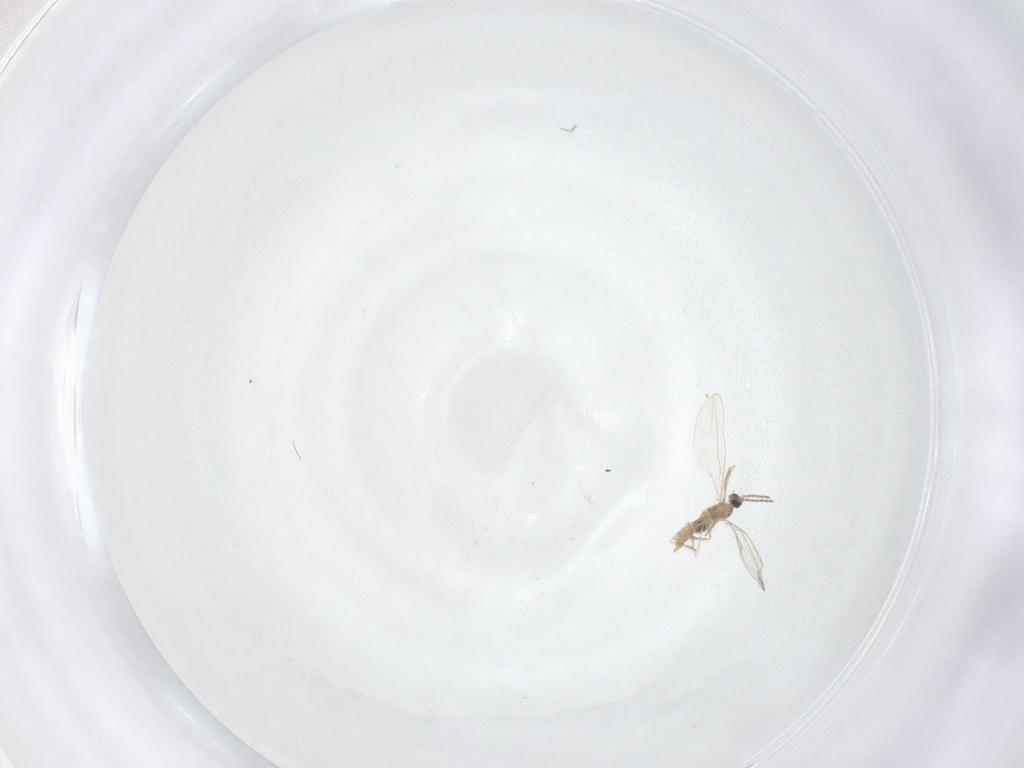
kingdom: Animalia
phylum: Arthropoda
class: Insecta
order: Diptera
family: Cecidomyiidae
